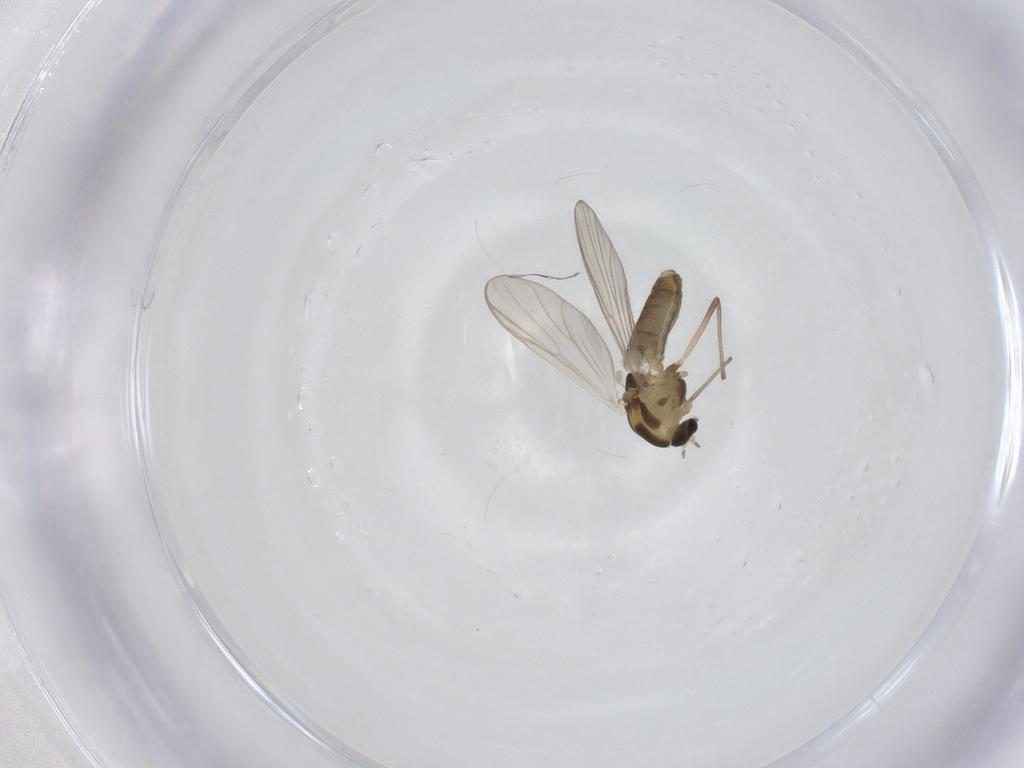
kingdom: Animalia
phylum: Arthropoda
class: Insecta
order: Diptera
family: Chironomidae
